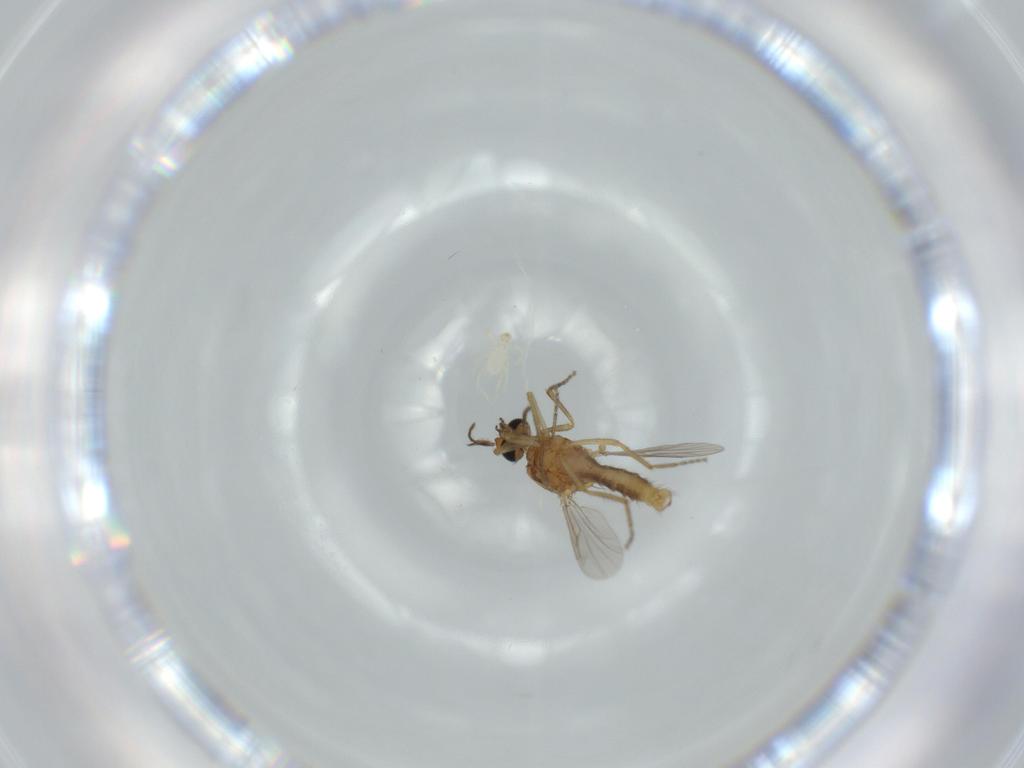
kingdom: Animalia
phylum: Arthropoda
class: Insecta
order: Diptera
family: Ceratopogonidae
